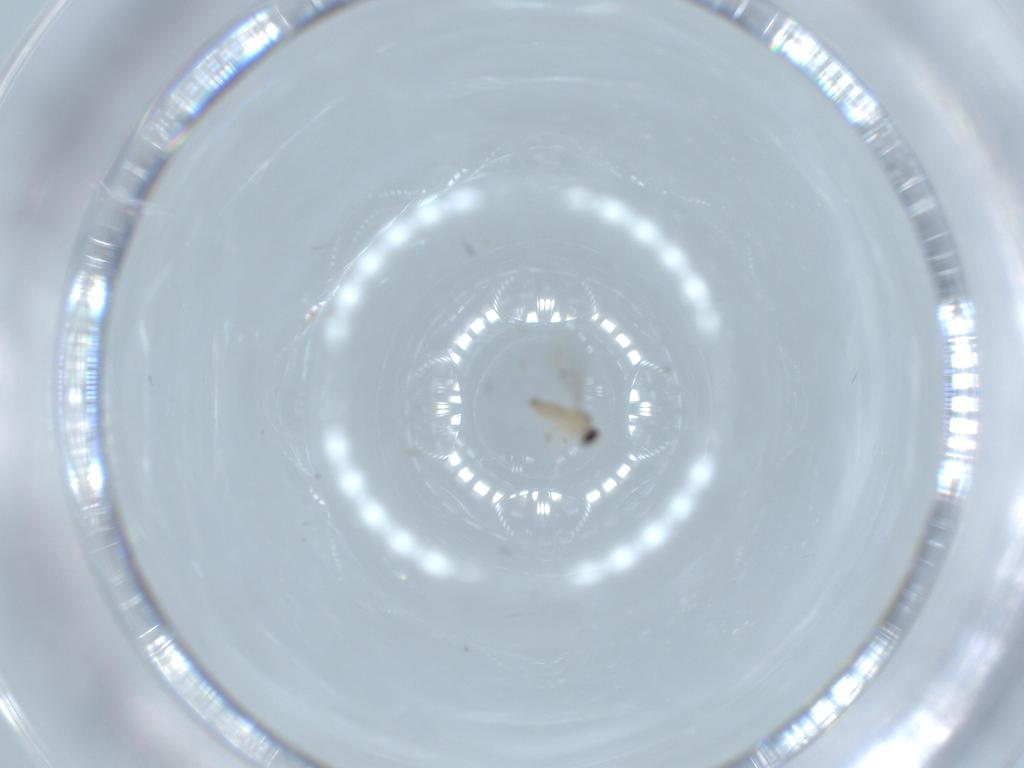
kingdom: Animalia
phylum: Arthropoda
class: Insecta
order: Diptera
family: Cecidomyiidae
